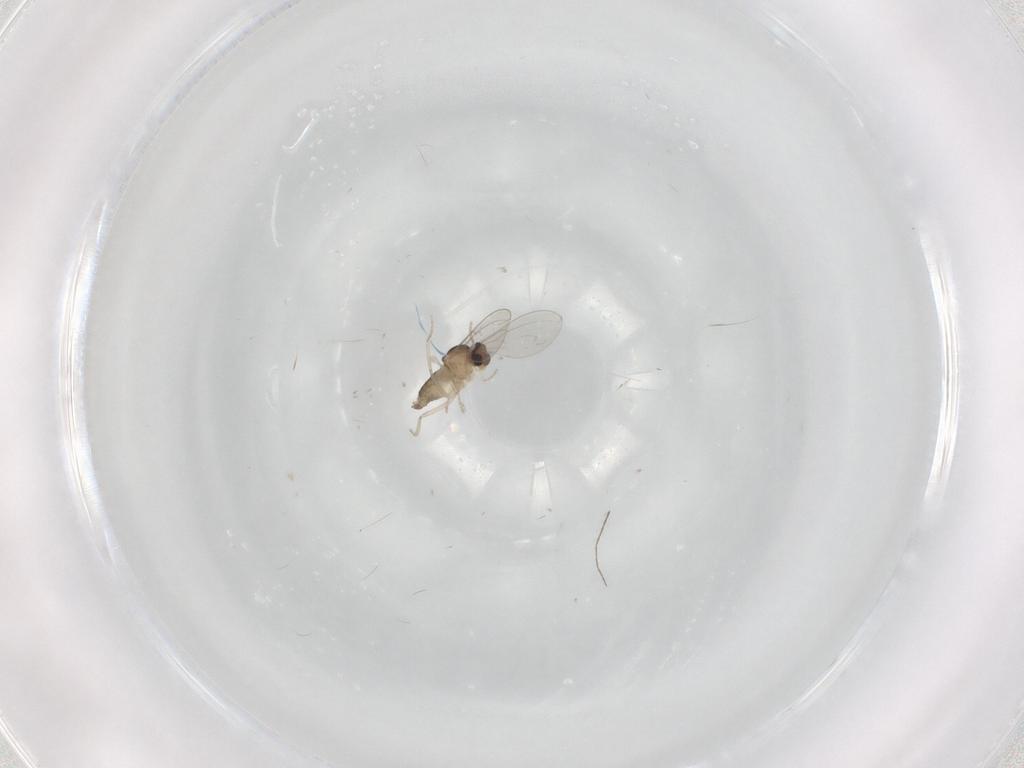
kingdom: Animalia
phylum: Arthropoda
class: Insecta
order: Diptera
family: Cecidomyiidae
